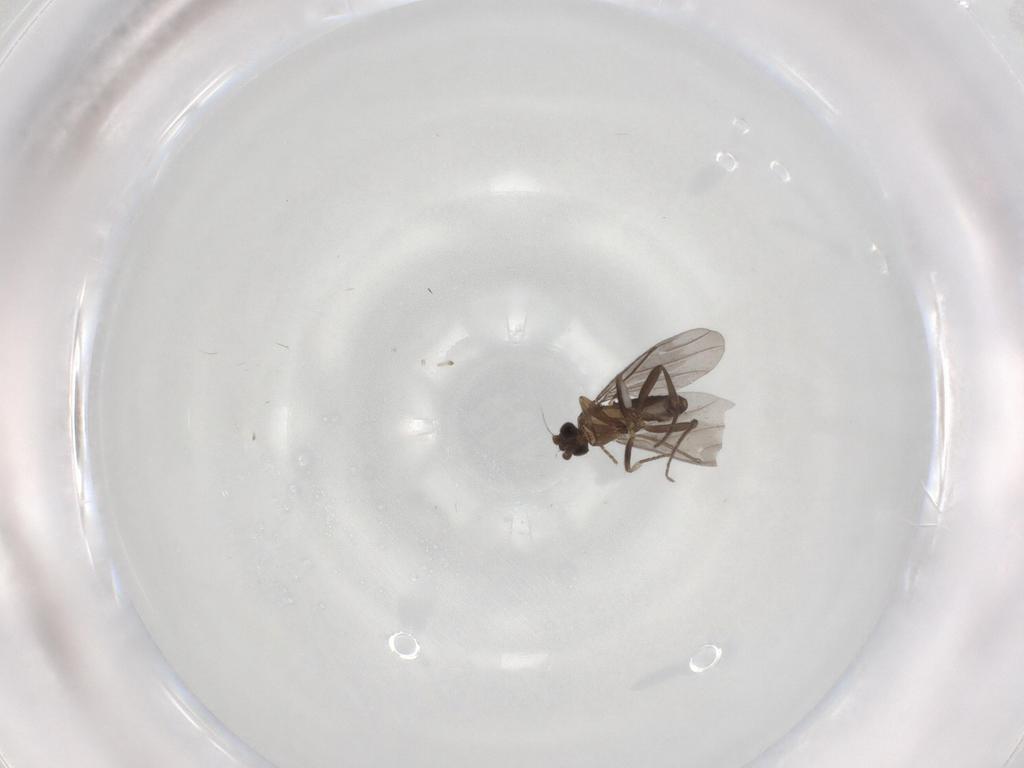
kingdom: Animalia
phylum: Arthropoda
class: Insecta
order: Diptera
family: Phoridae
